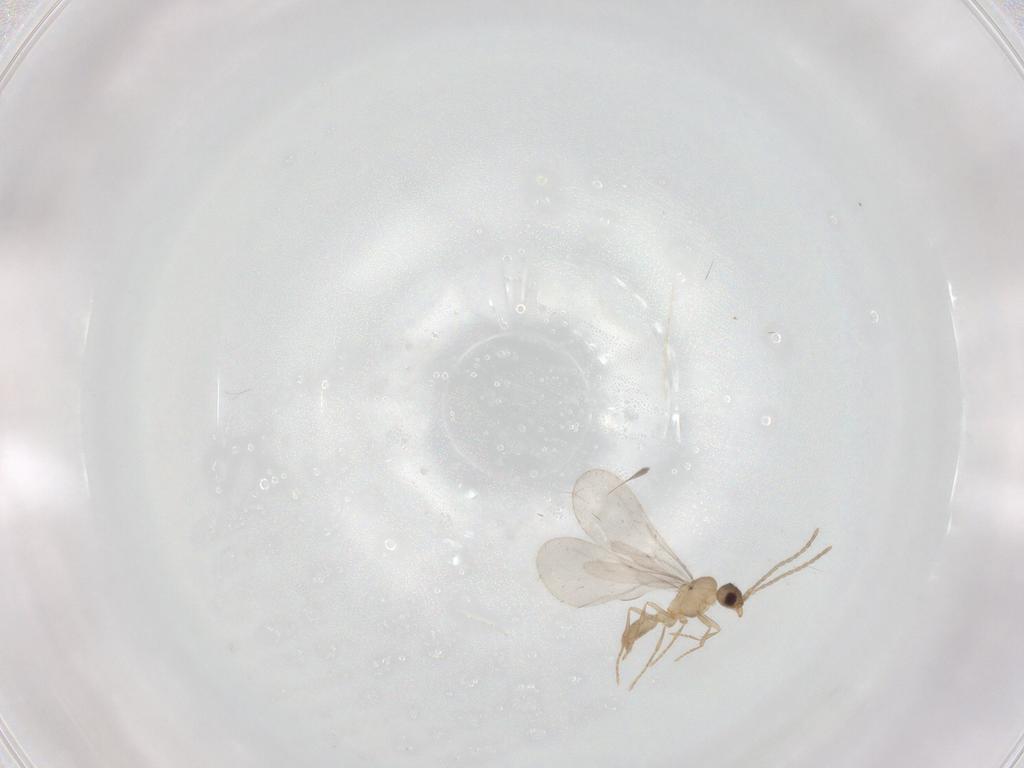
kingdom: Animalia
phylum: Arthropoda
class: Insecta
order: Hymenoptera
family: Formicidae
